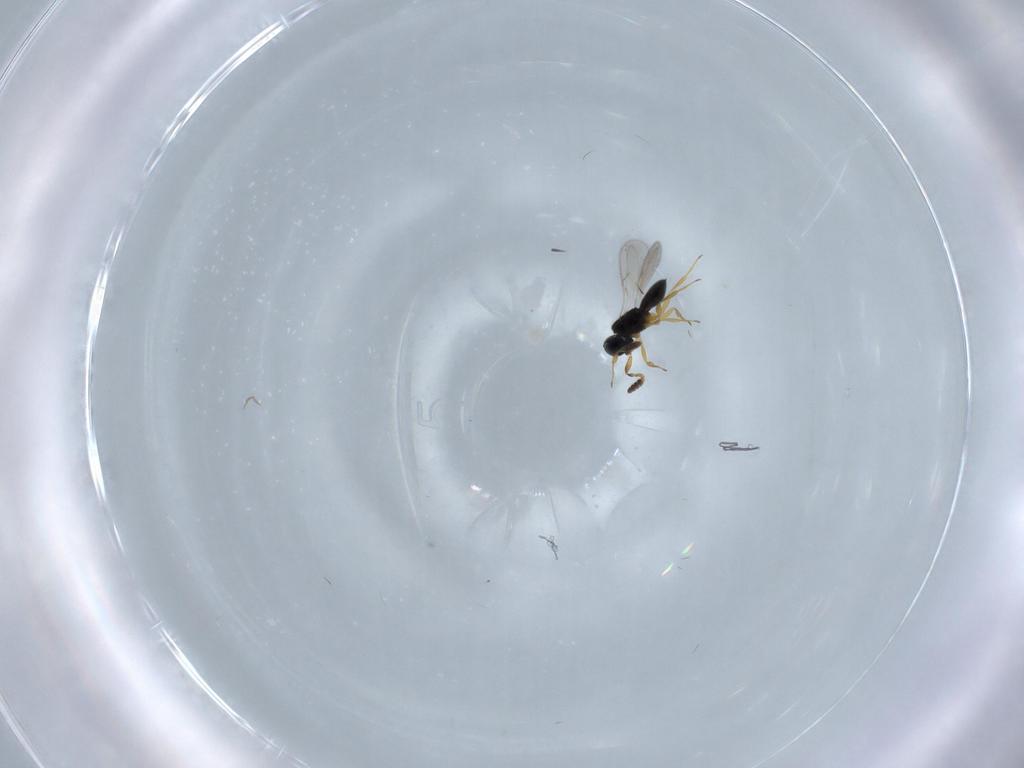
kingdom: Animalia
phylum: Arthropoda
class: Insecta
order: Hymenoptera
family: Scelionidae
